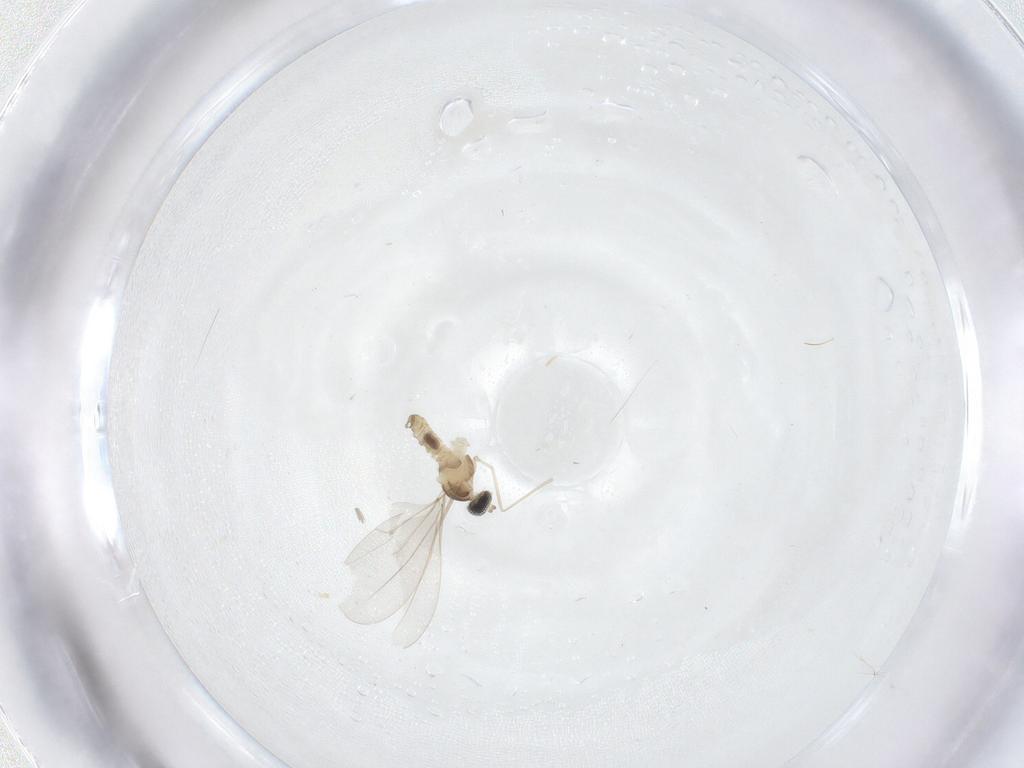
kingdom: Animalia
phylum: Arthropoda
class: Insecta
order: Diptera
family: Cecidomyiidae
